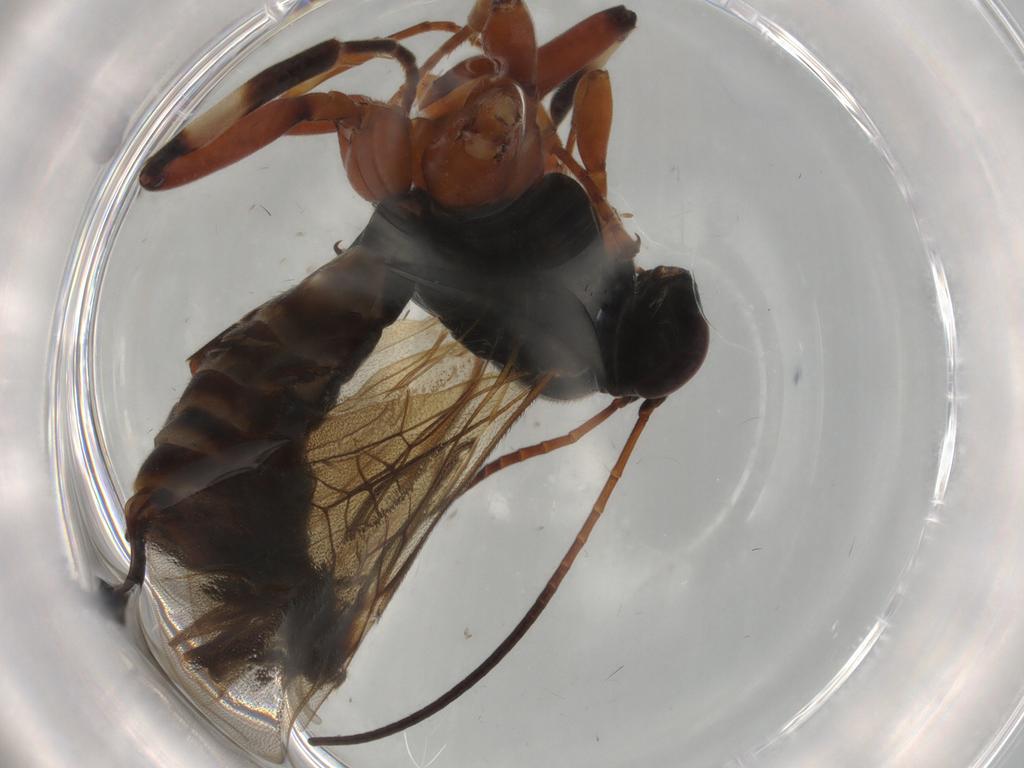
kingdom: Animalia
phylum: Arthropoda
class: Insecta
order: Hymenoptera
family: Ichneumonidae
